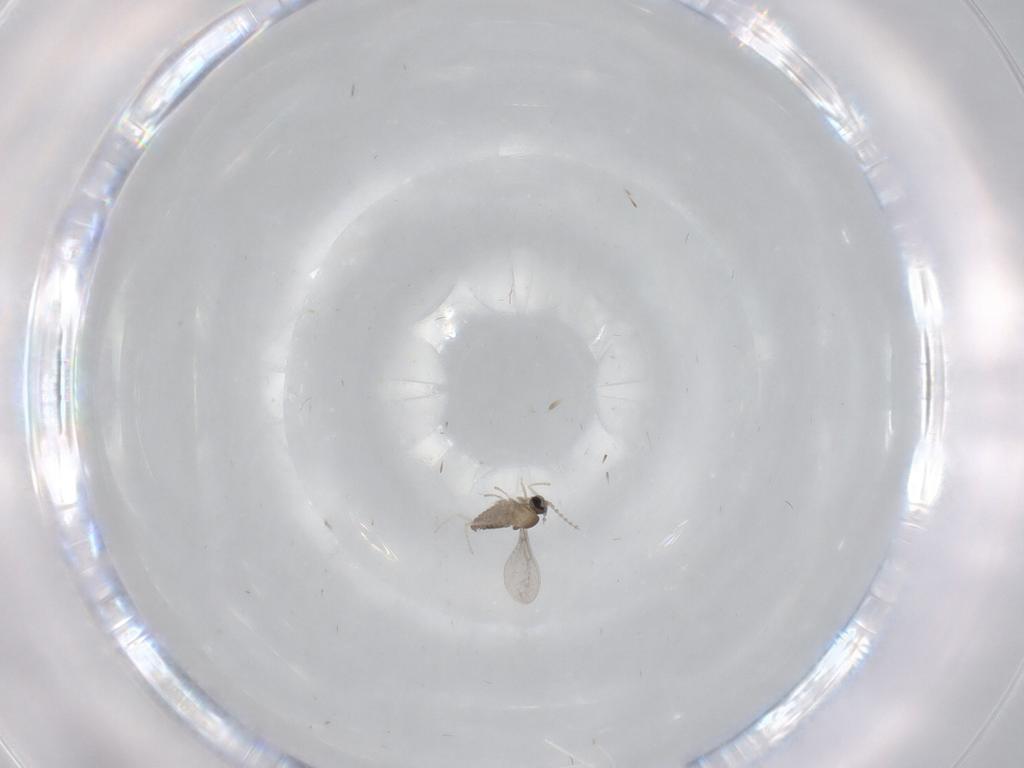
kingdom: Animalia
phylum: Arthropoda
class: Insecta
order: Diptera
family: Cecidomyiidae
